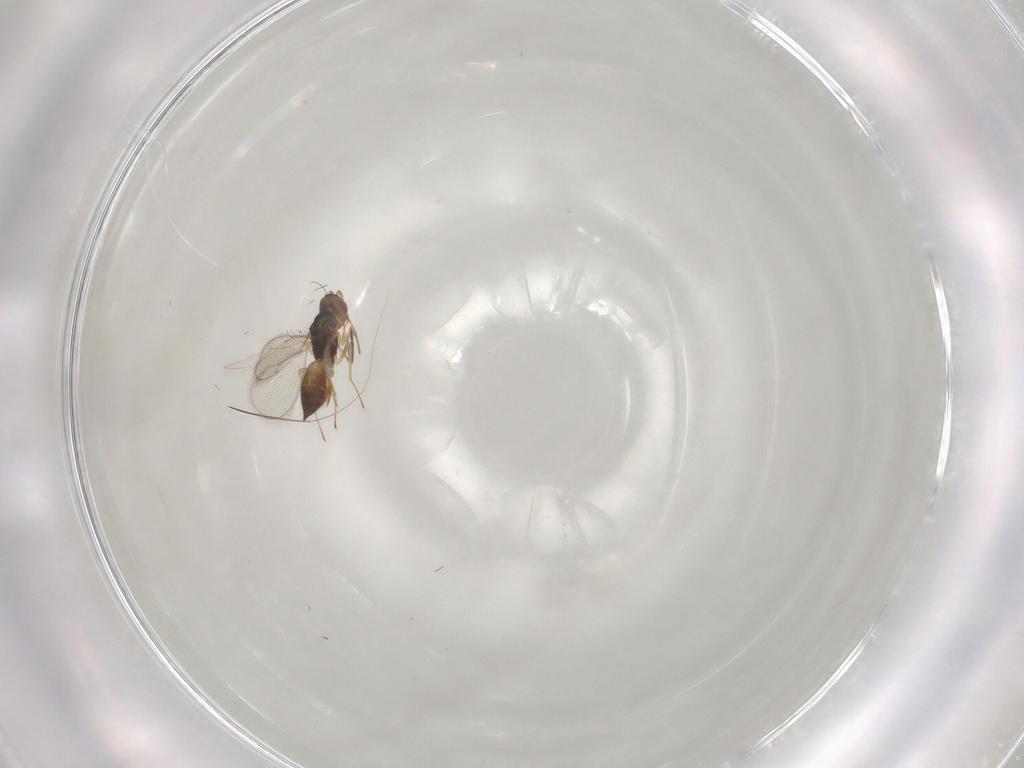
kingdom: Animalia
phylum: Arthropoda
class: Insecta
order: Hymenoptera
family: Eulophidae
